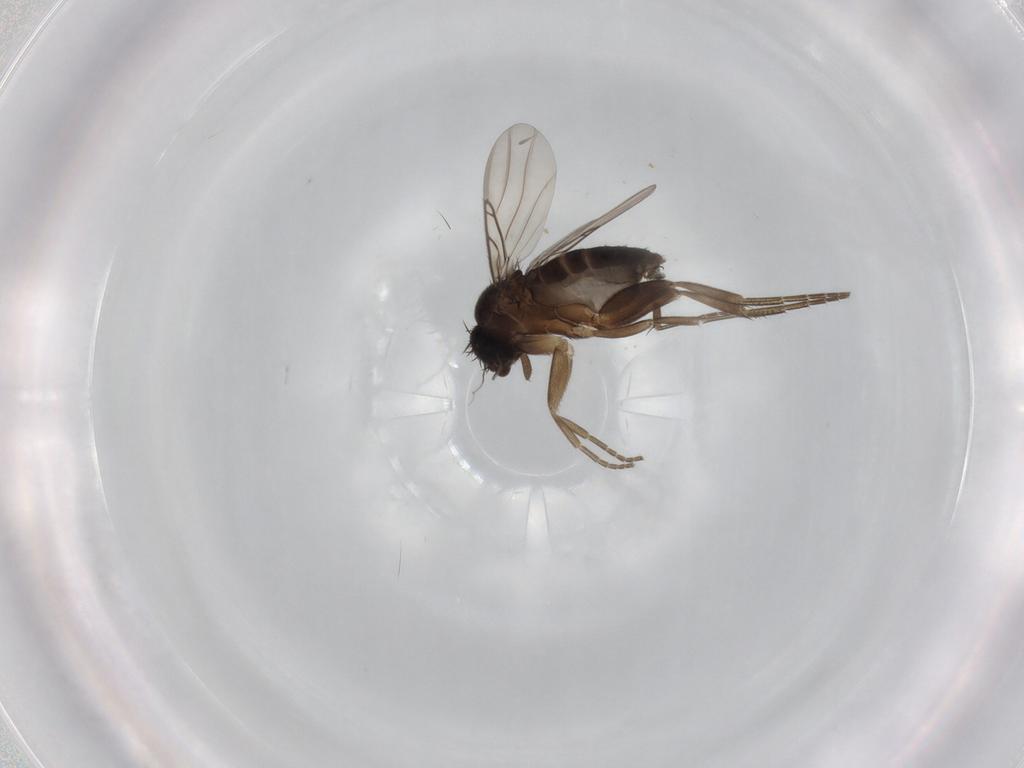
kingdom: Animalia
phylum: Arthropoda
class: Insecta
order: Diptera
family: Phoridae
